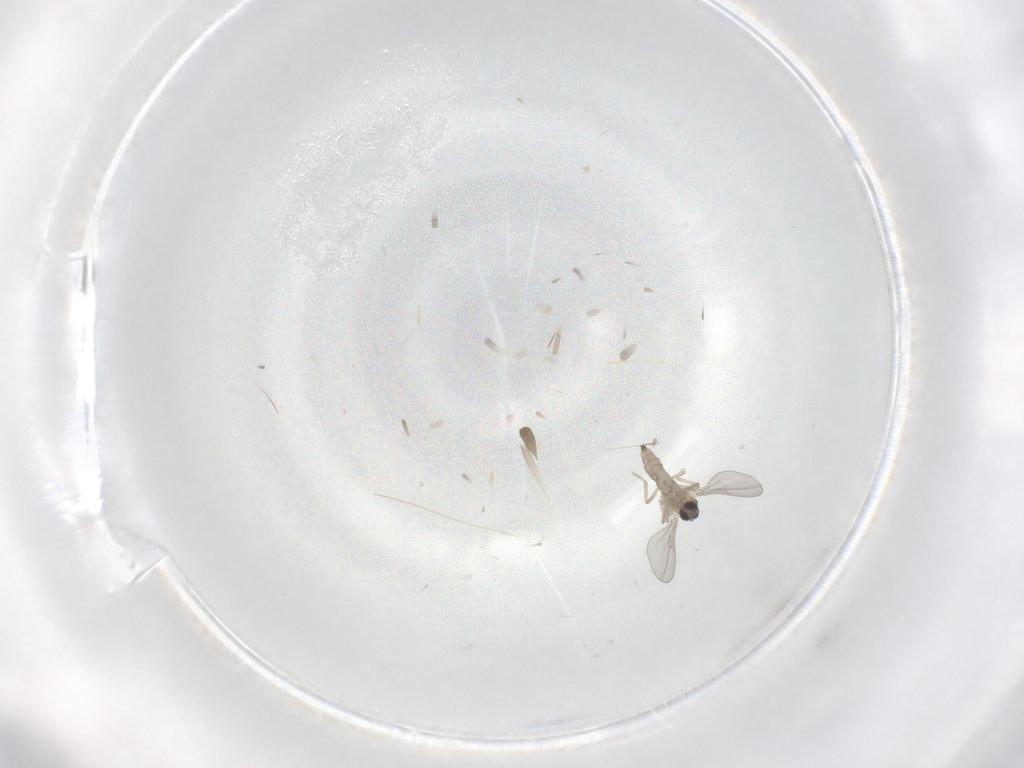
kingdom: Animalia
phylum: Arthropoda
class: Insecta
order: Diptera
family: Cecidomyiidae
